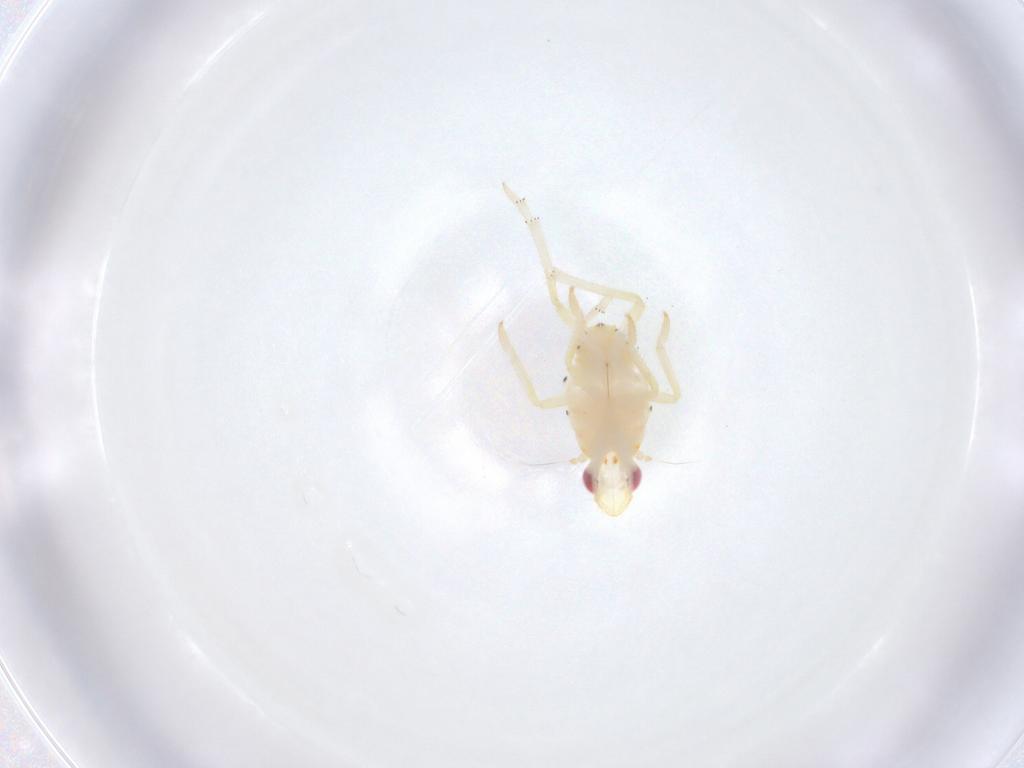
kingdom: Animalia
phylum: Arthropoda
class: Insecta
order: Hemiptera
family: Tropiduchidae
